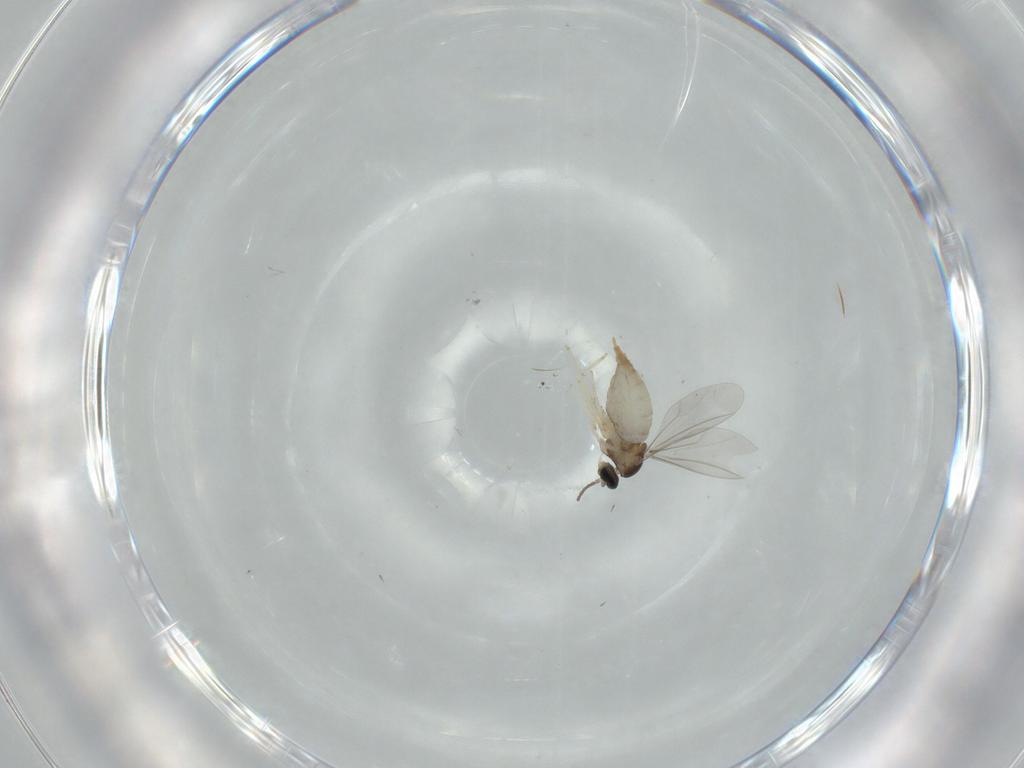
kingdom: Animalia
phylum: Arthropoda
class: Insecta
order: Diptera
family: Cecidomyiidae
